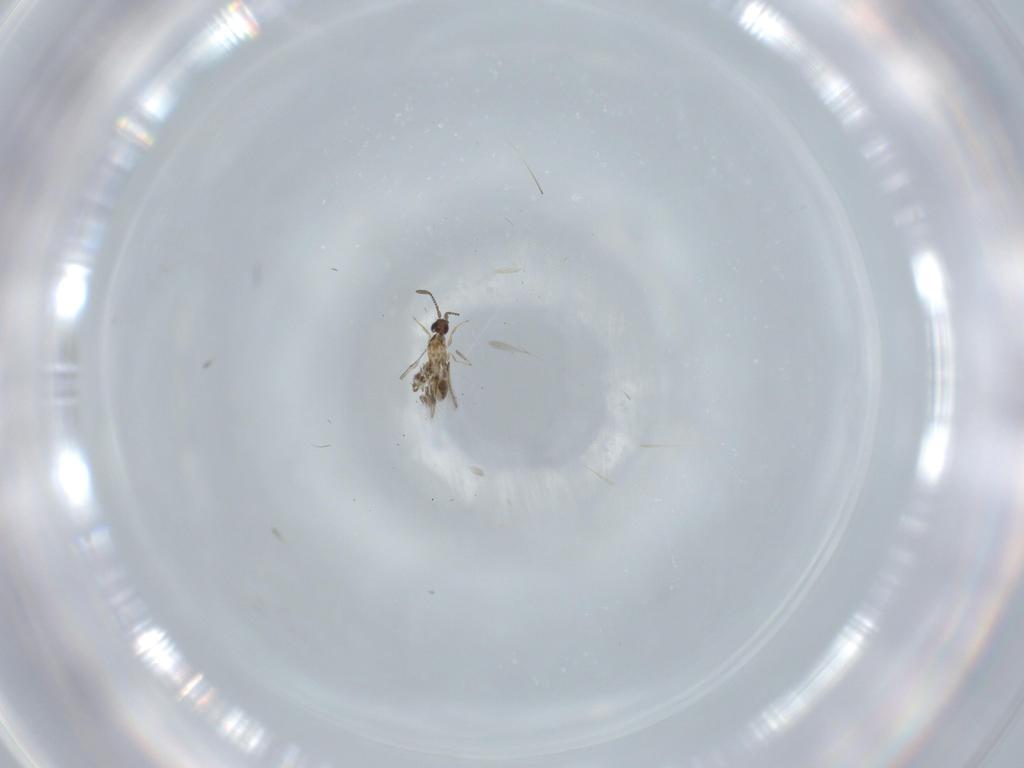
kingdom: Animalia
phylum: Arthropoda
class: Insecta
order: Hymenoptera
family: Mymaridae
